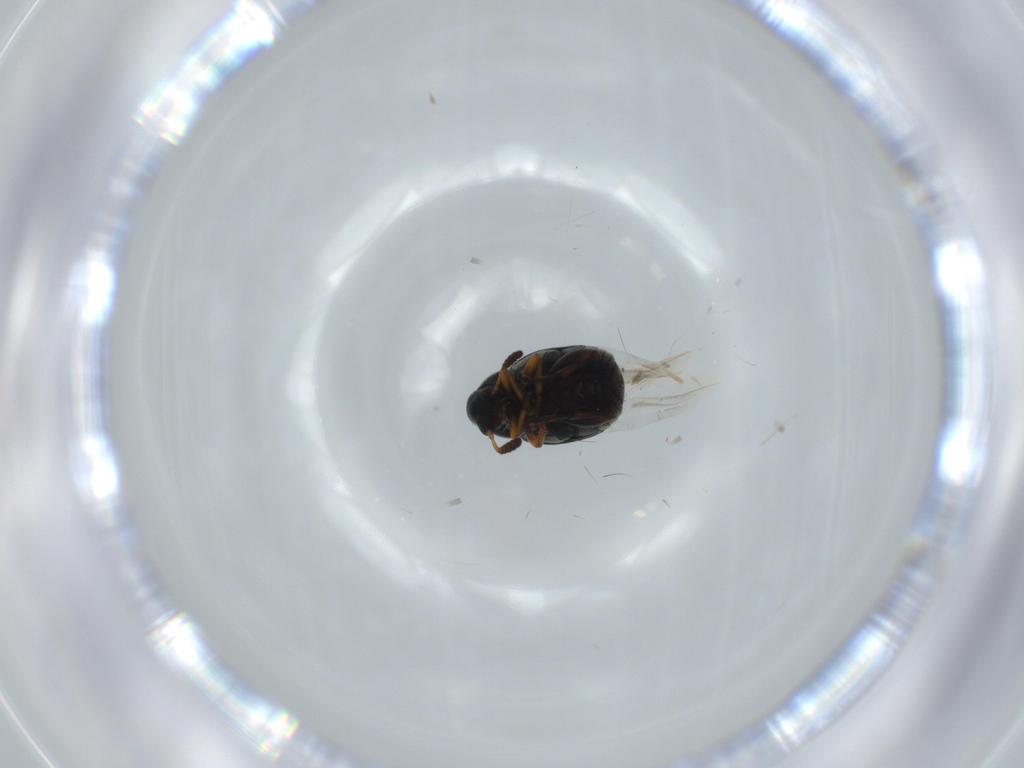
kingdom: Animalia
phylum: Arthropoda
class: Insecta
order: Coleoptera
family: Chrysomelidae
